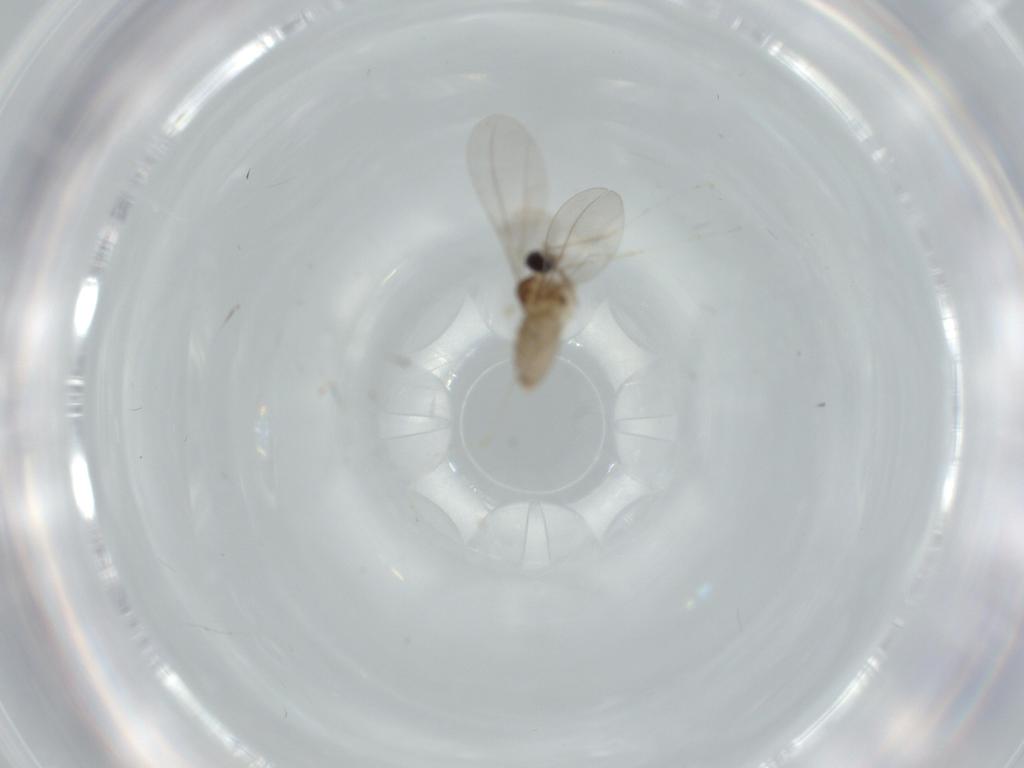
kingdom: Animalia
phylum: Arthropoda
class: Insecta
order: Diptera
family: Cecidomyiidae
